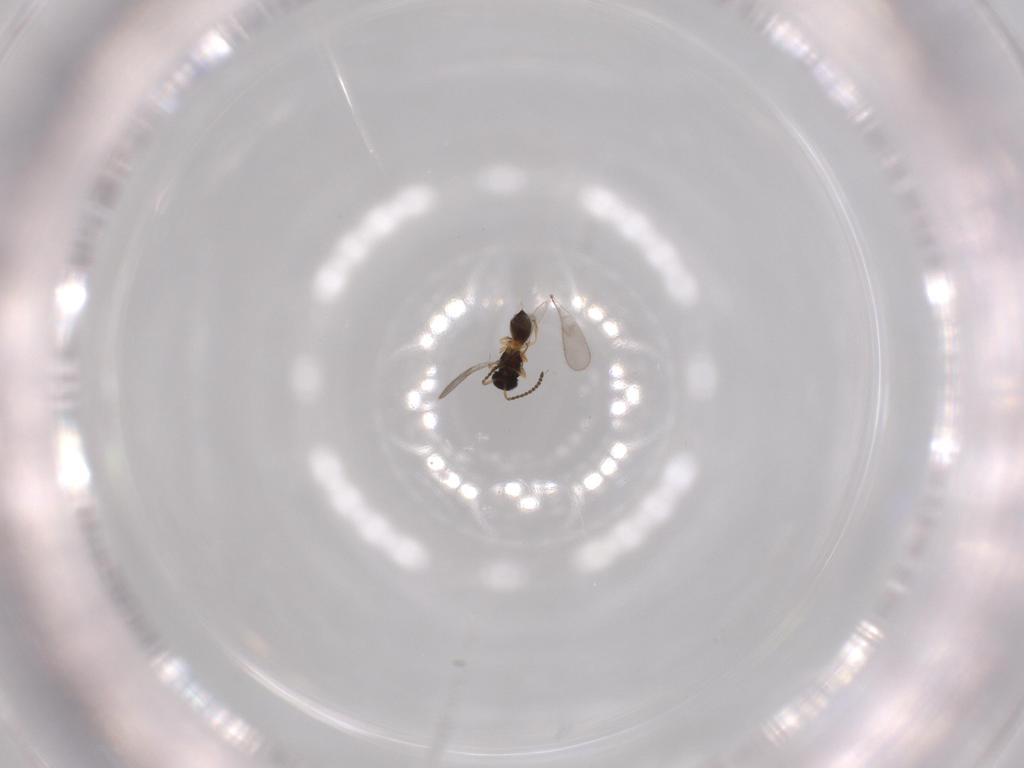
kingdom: Animalia
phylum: Arthropoda
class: Insecta
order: Hymenoptera
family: Scelionidae
